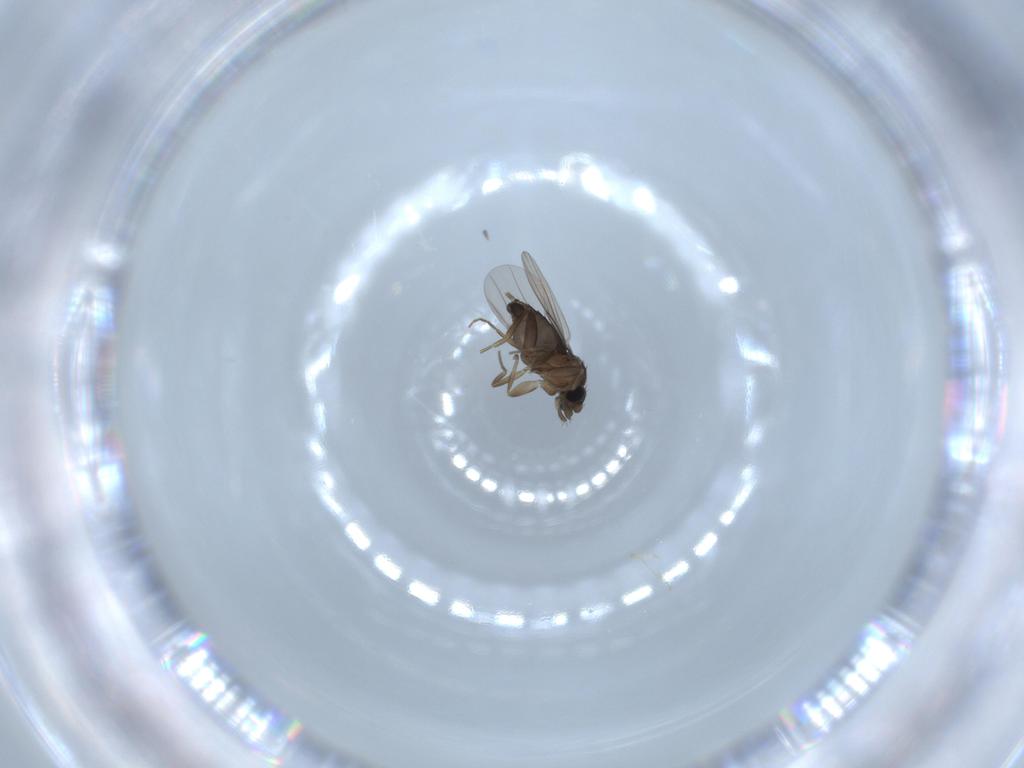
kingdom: Animalia
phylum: Arthropoda
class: Insecta
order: Diptera
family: Phoridae
